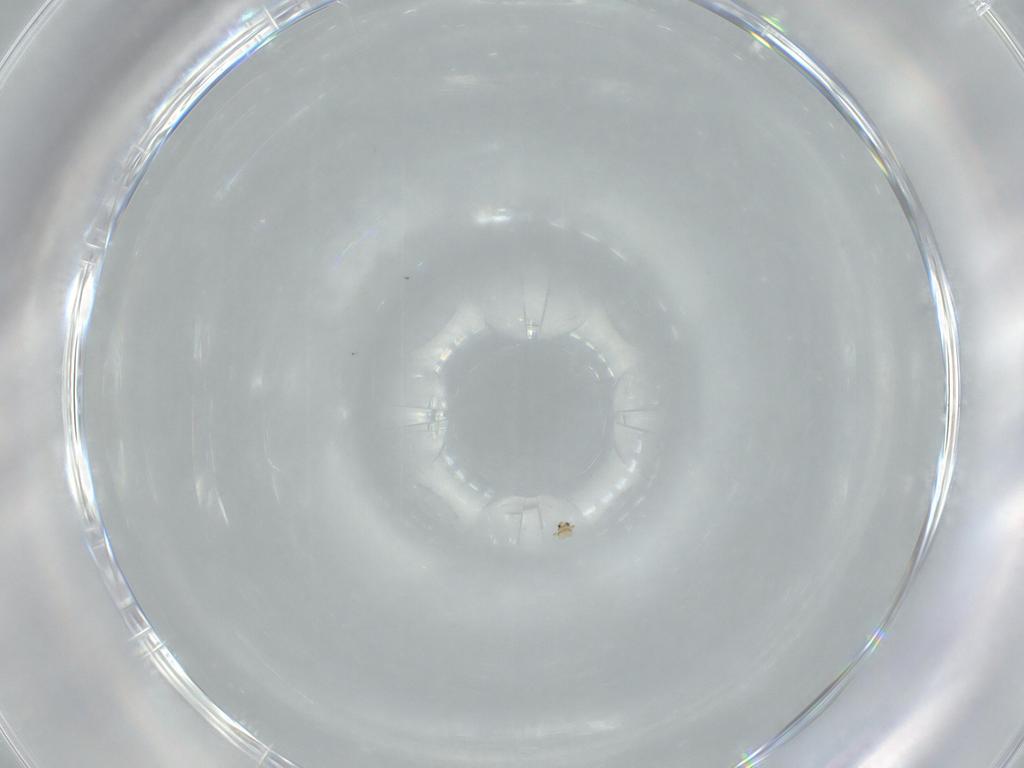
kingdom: Animalia
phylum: Arthropoda
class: Insecta
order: Coleoptera
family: Ripiphoridae
